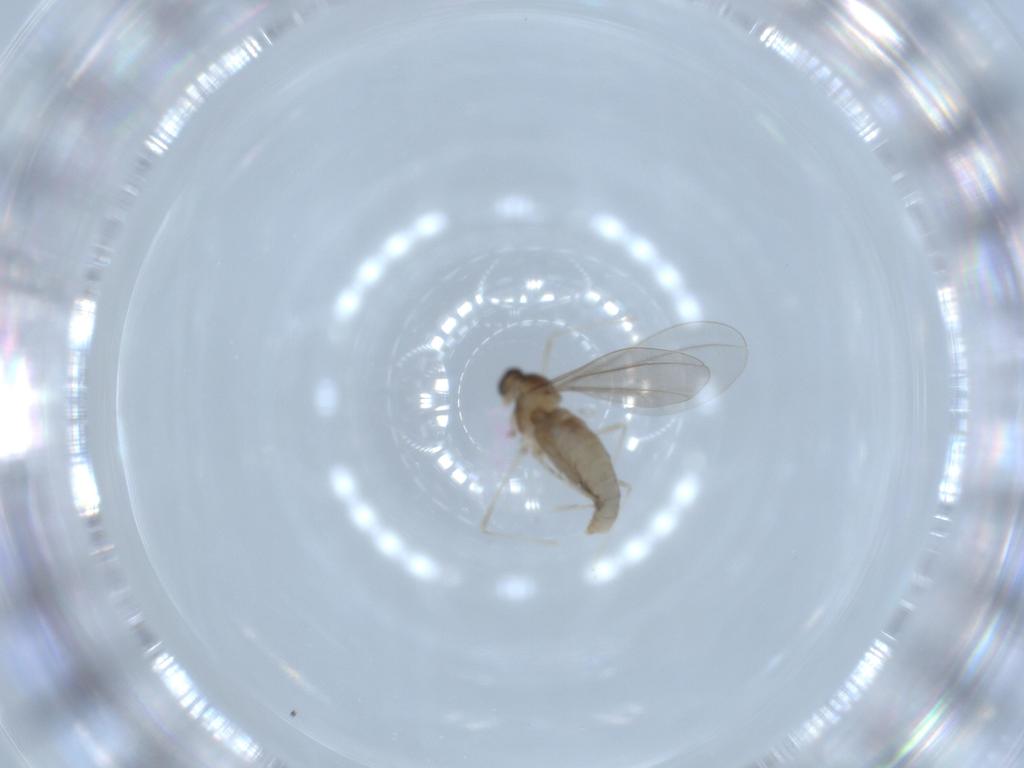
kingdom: Animalia
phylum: Arthropoda
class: Insecta
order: Diptera
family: Cecidomyiidae
